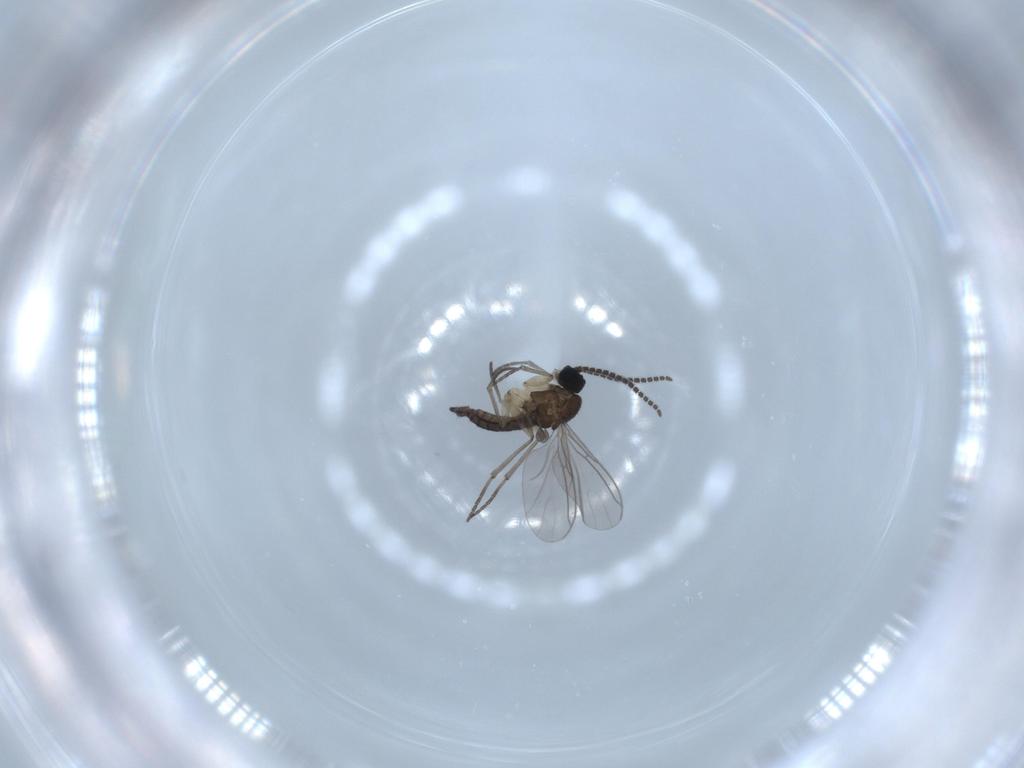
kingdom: Animalia
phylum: Arthropoda
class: Insecta
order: Diptera
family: Sciaridae
